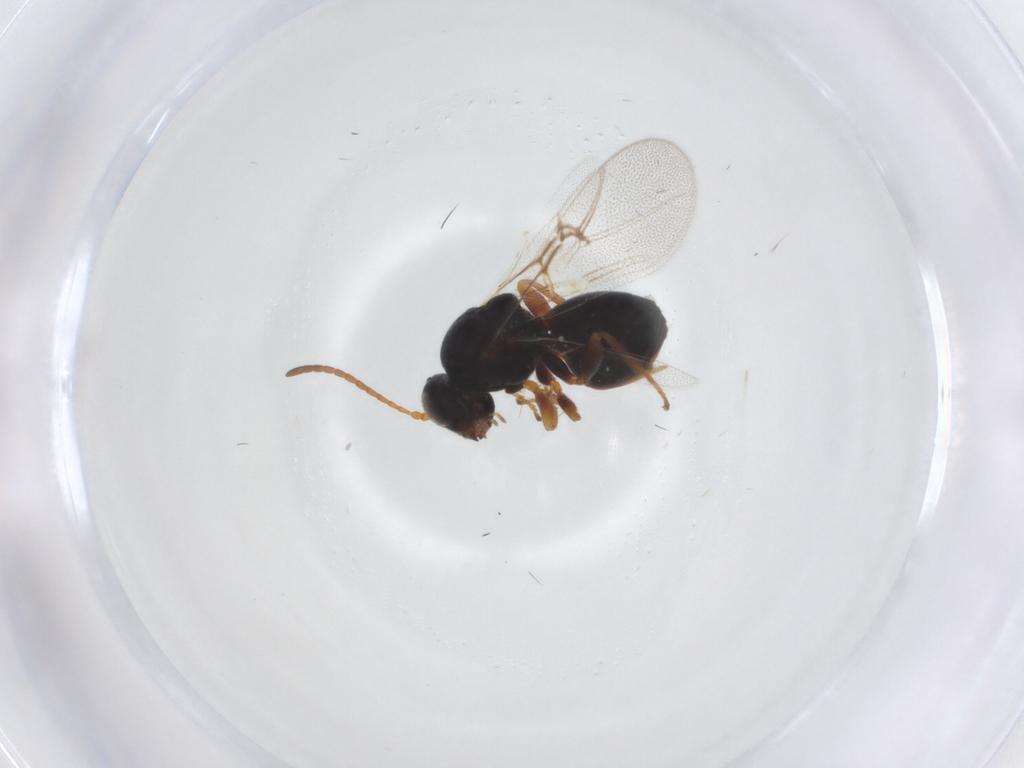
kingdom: Animalia
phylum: Arthropoda
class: Insecta
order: Hymenoptera
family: Cynipidae
